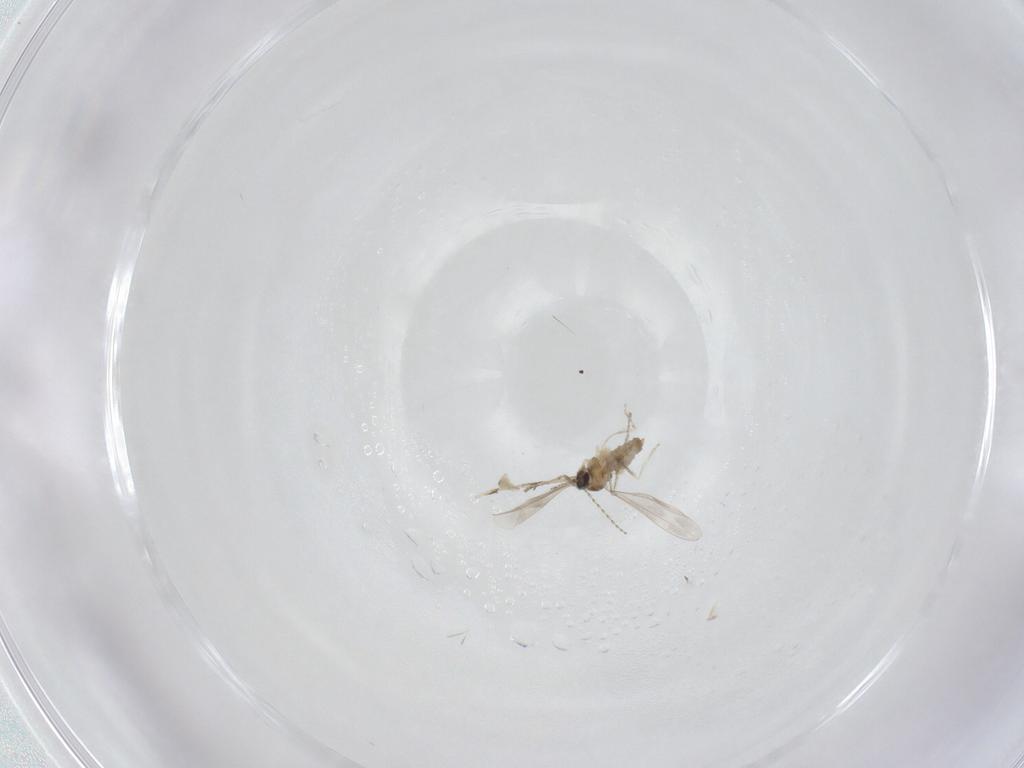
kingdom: Animalia
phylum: Arthropoda
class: Insecta
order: Diptera
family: Cecidomyiidae
